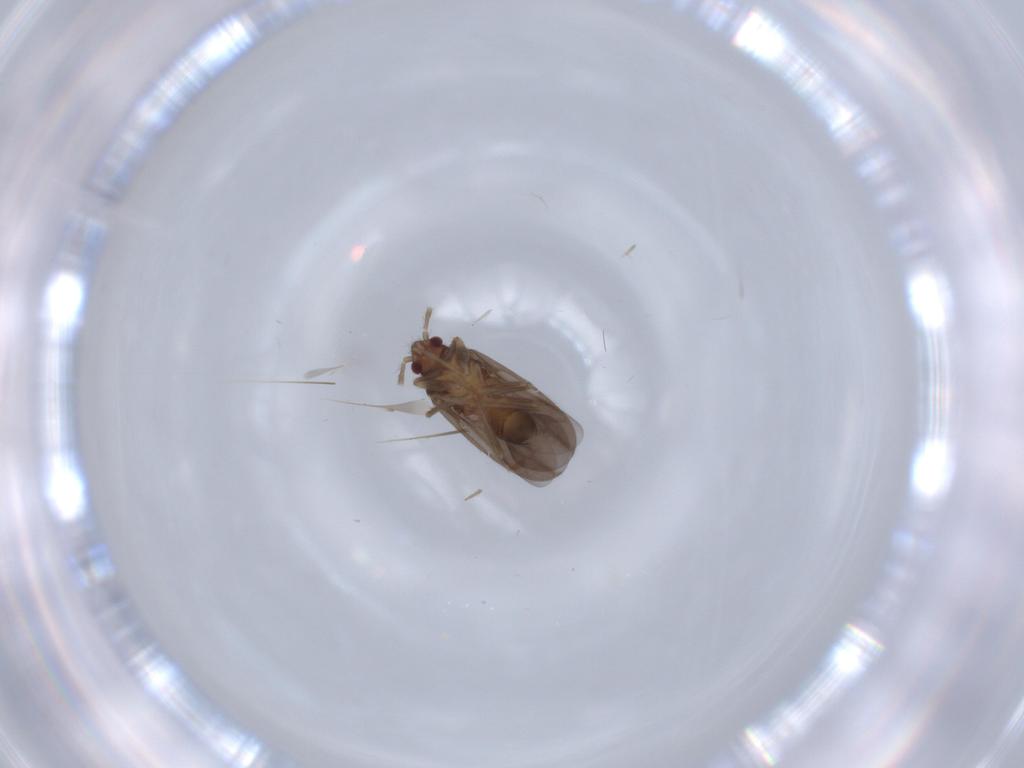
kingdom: Animalia
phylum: Arthropoda
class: Insecta
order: Hemiptera
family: Ceratocombidae
